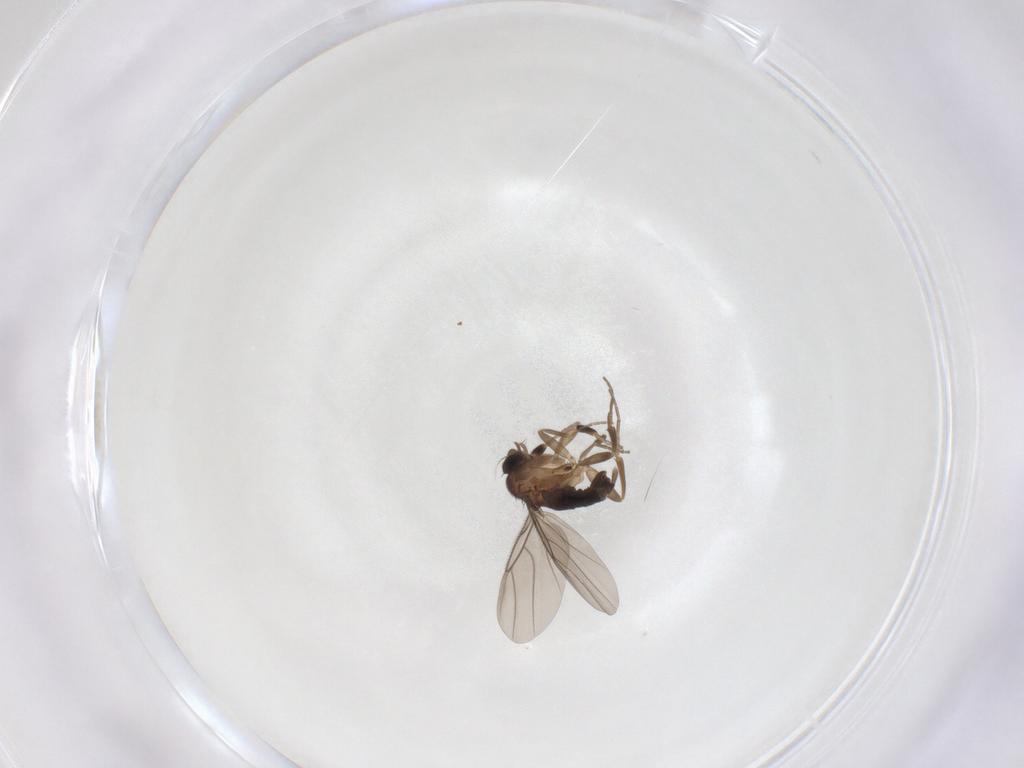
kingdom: Animalia
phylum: Arthropoda
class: Insecta
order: Diptera
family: Phoridae
